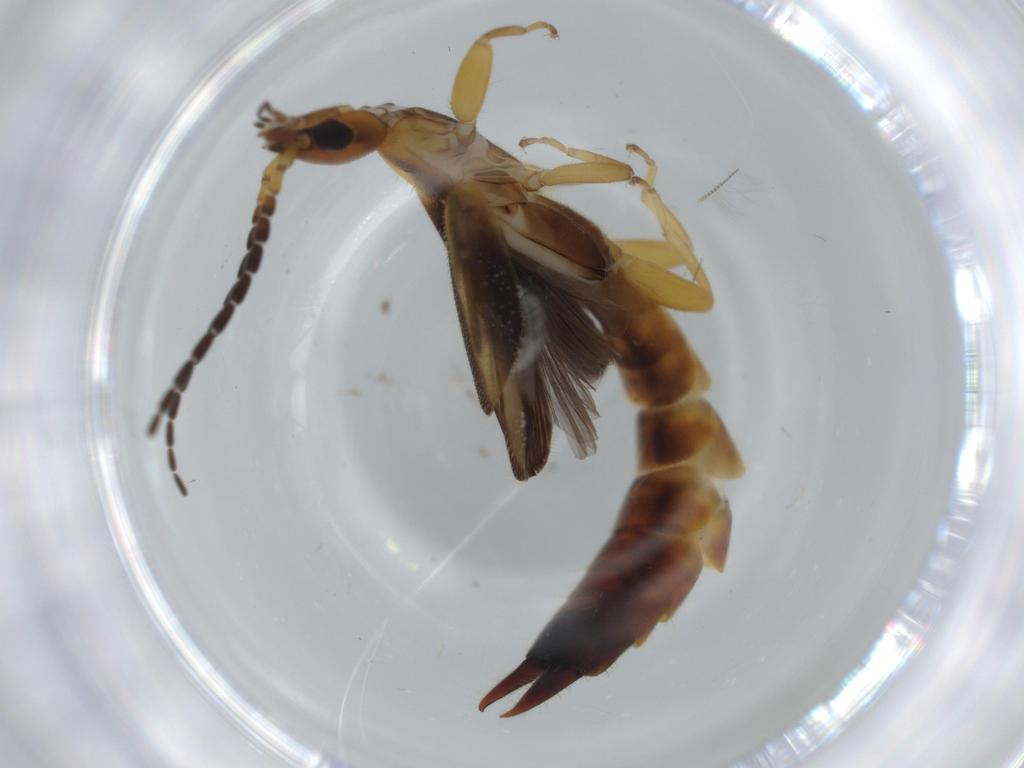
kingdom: Animalia
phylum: Arthropoda
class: Insecta
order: Dermaptera
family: Forficulidae
